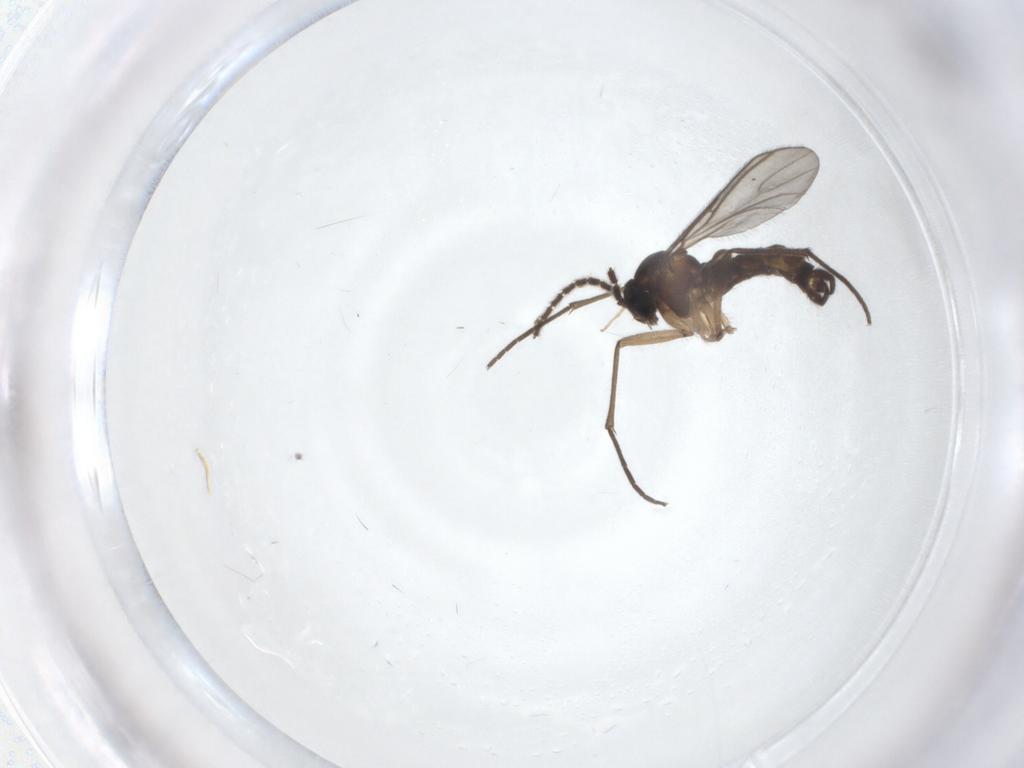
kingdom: Animalia
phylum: Arthropoda
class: Insecta
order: Diptera
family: Sciaridae
